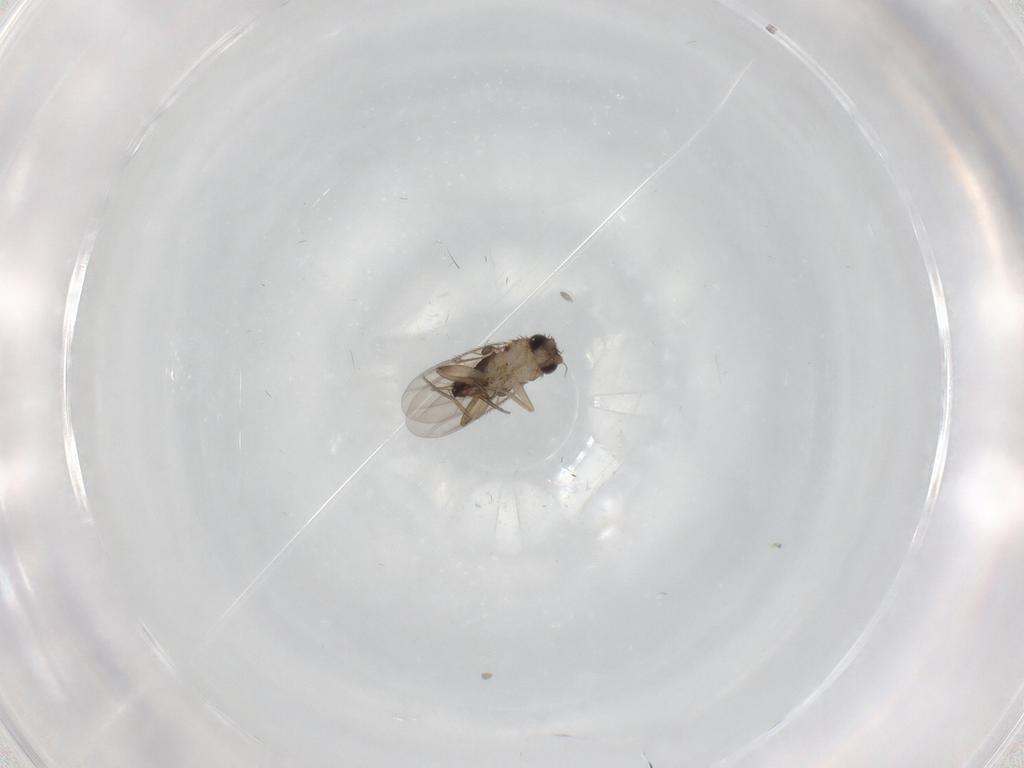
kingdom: Animalia
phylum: Arthropoda
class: Insecta
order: Diptera
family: Phoridae
